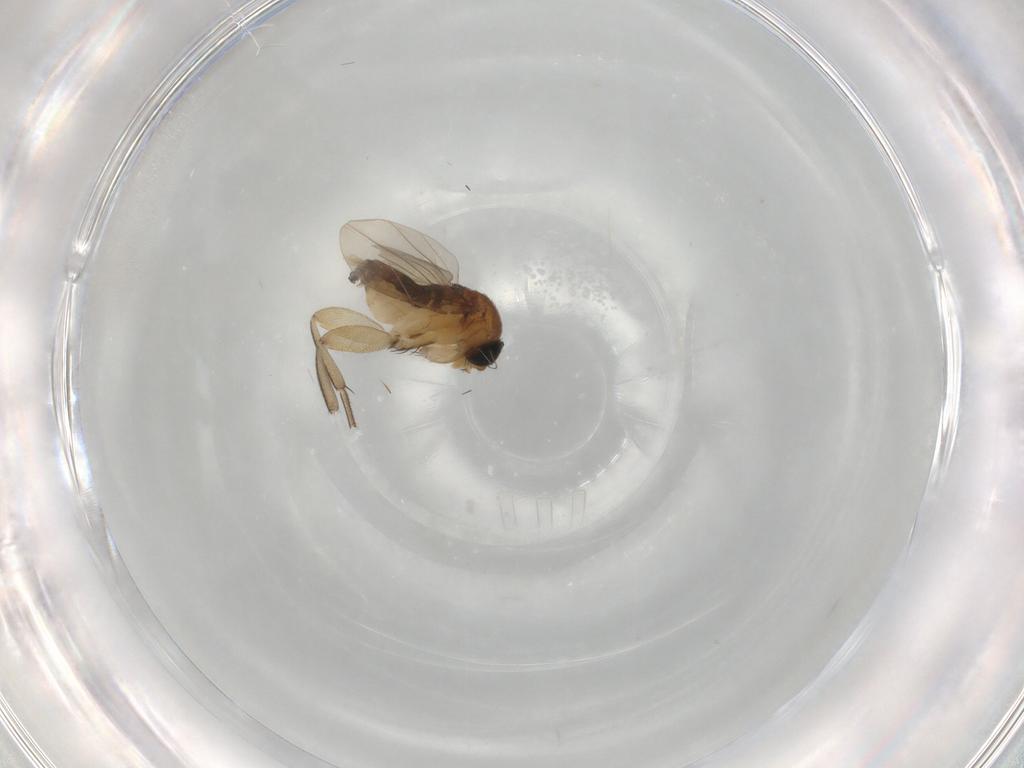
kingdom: Animalia
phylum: Arthropoda
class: Insecta
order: Diptera
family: Phoridae
